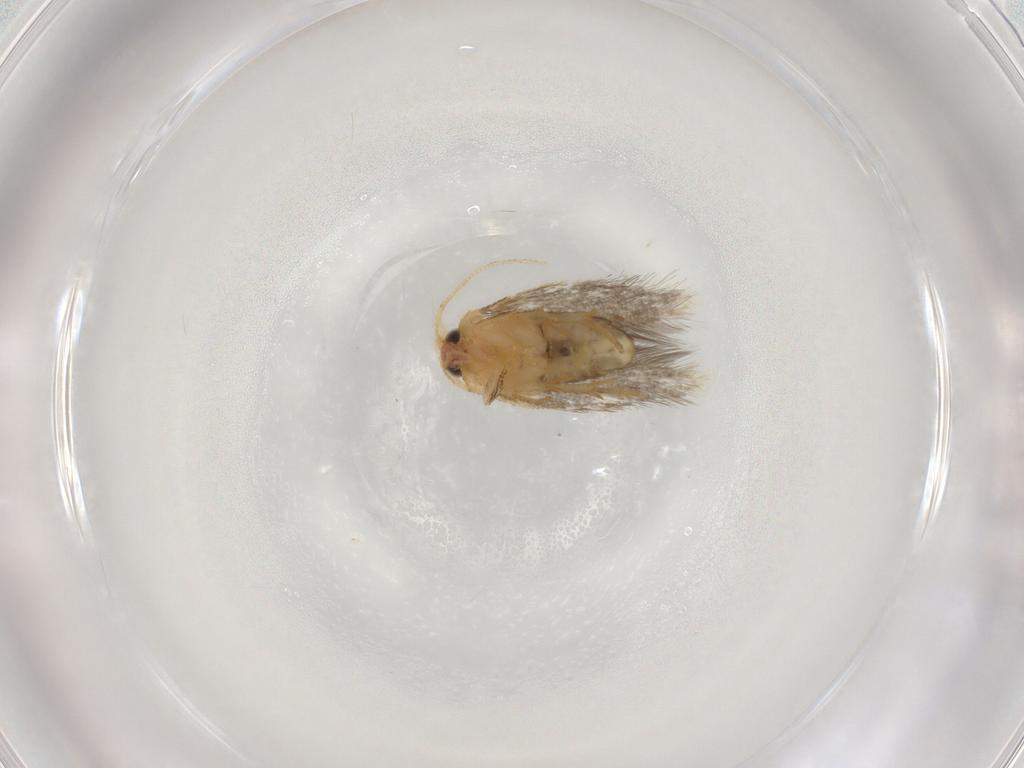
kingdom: Animalia
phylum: Arthropoda
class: Insecta
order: Lepidoptera
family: Nepticulidae
